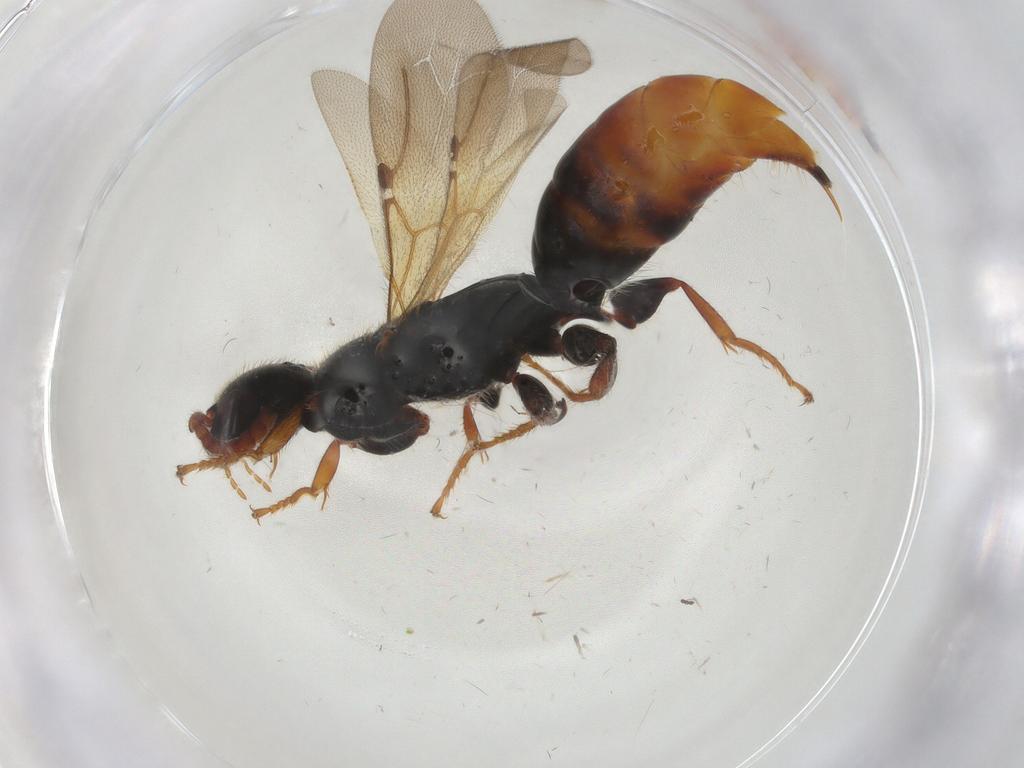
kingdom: Animalia
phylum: Arthropoda
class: Insecta
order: Hymenoptera
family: Bethylidae
